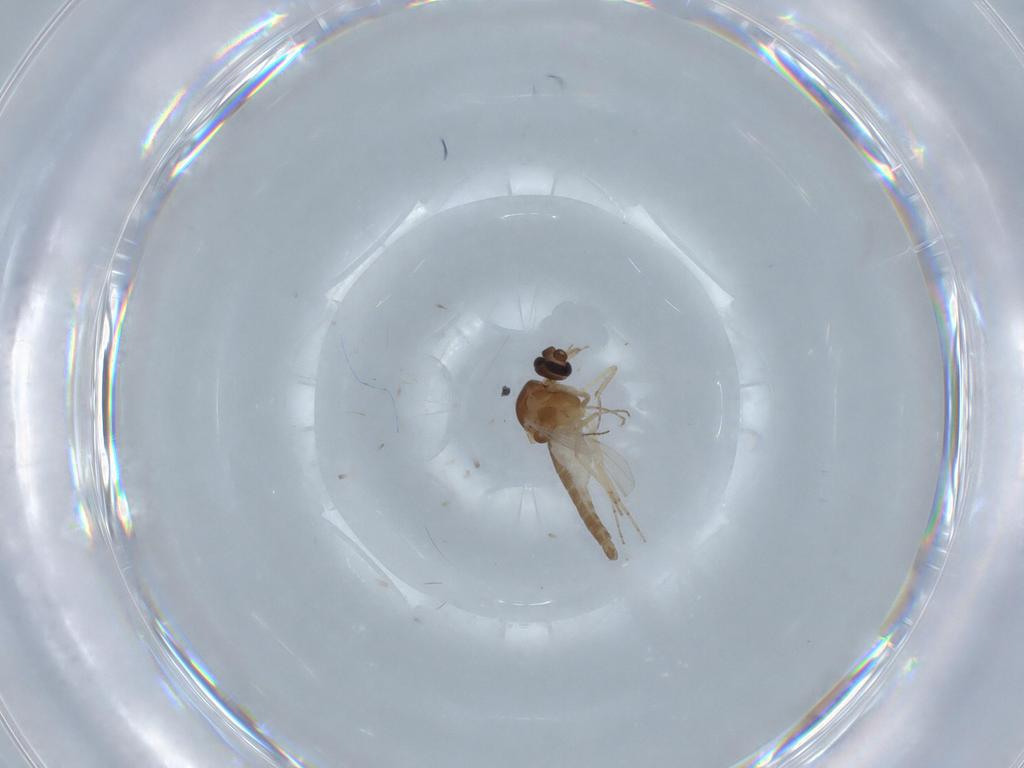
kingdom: Animalia
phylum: Arthropoda
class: Insecta
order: Diptera
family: Ceratopogonidae
